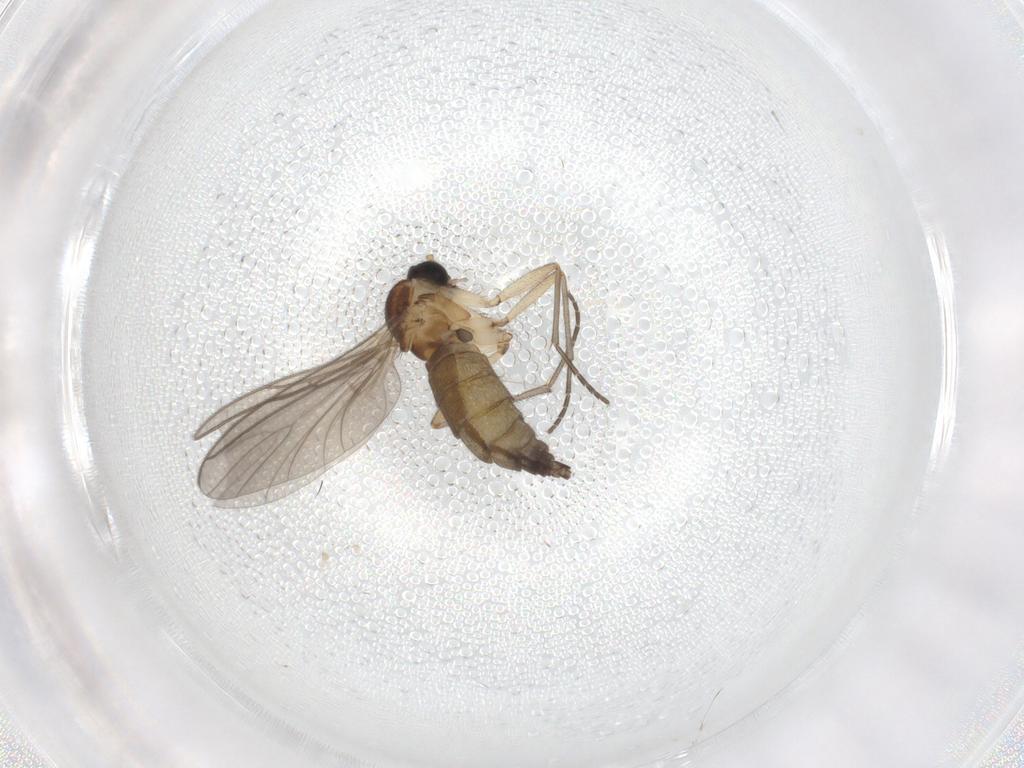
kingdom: Animalia
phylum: Arthropoda
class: Insecta
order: Diptera
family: Sciaridae
